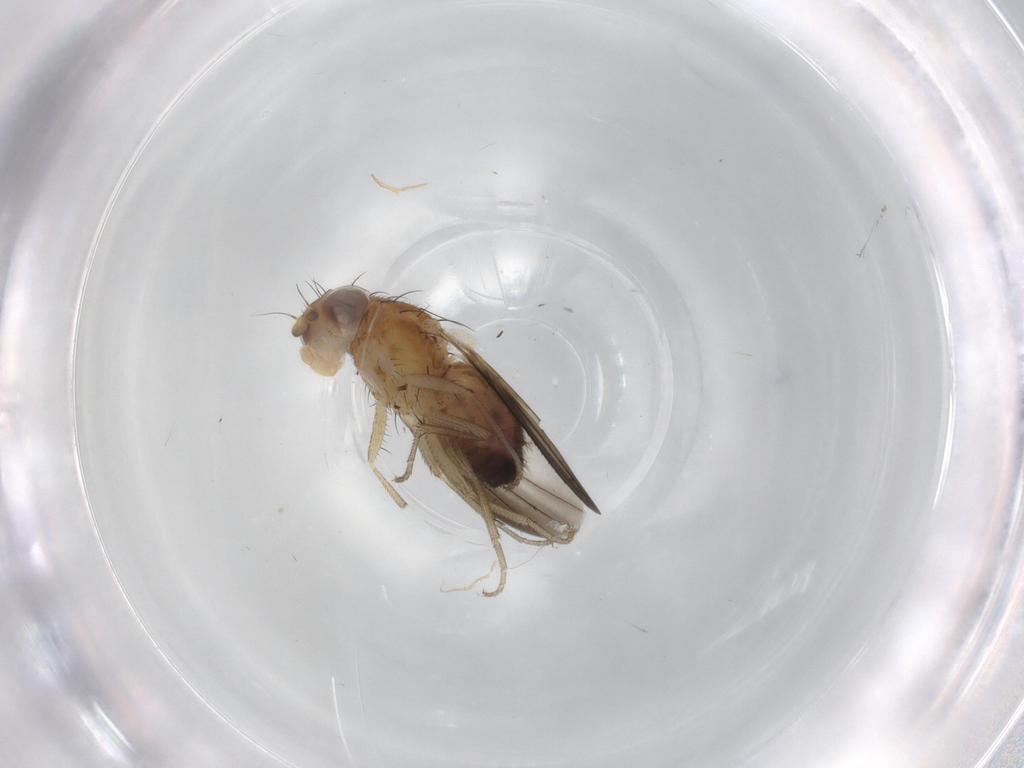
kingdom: Animalia
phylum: Arthropoda
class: Insecta
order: Diptera
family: Heleomyzidae
